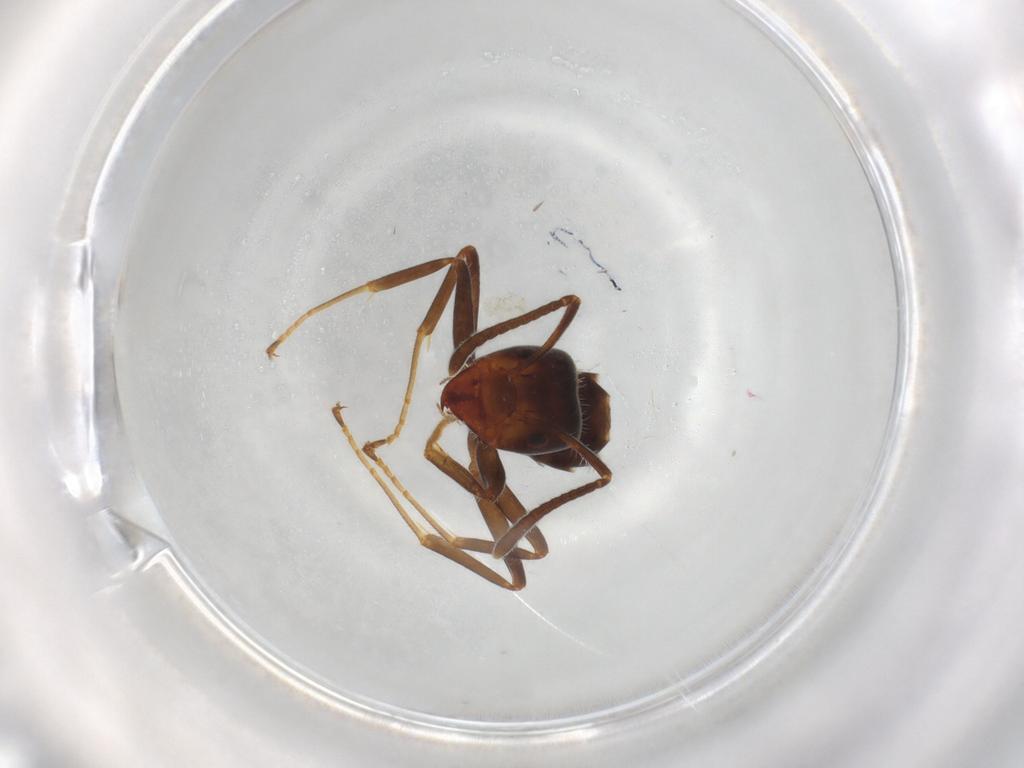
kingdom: Animalia
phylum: Arthropoda
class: Insecta
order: Hymenoptera
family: Formicidae
